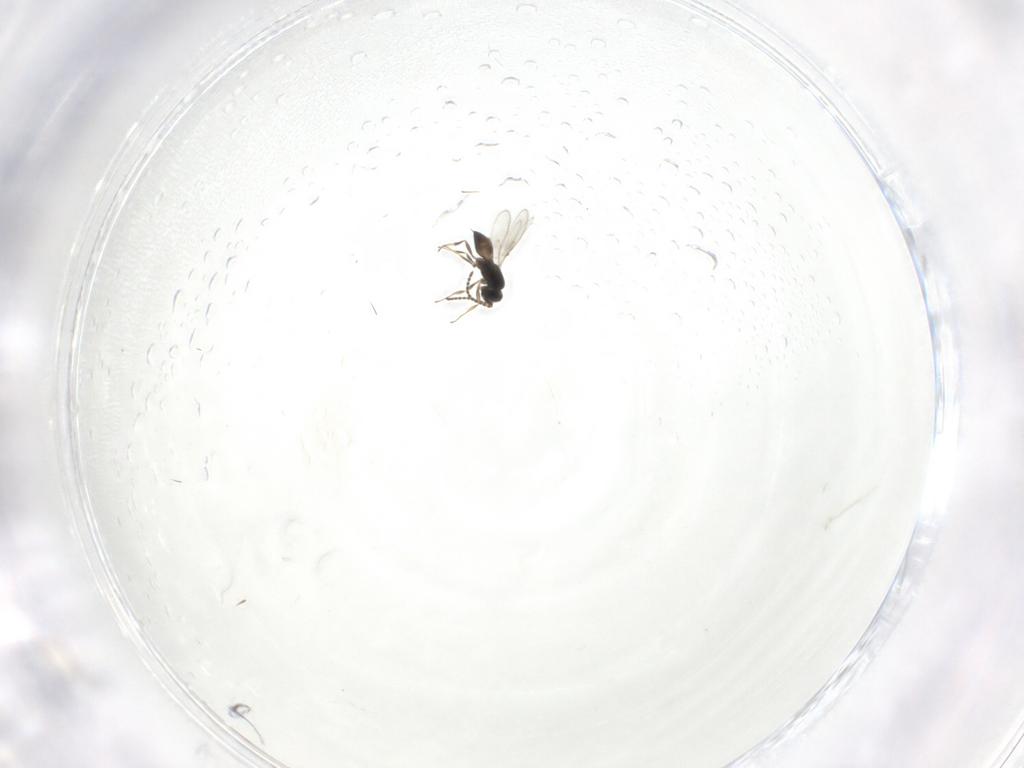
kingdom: Animalia
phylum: Arthropoda
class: Insecta
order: Hymenoptera
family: Scelionidae
